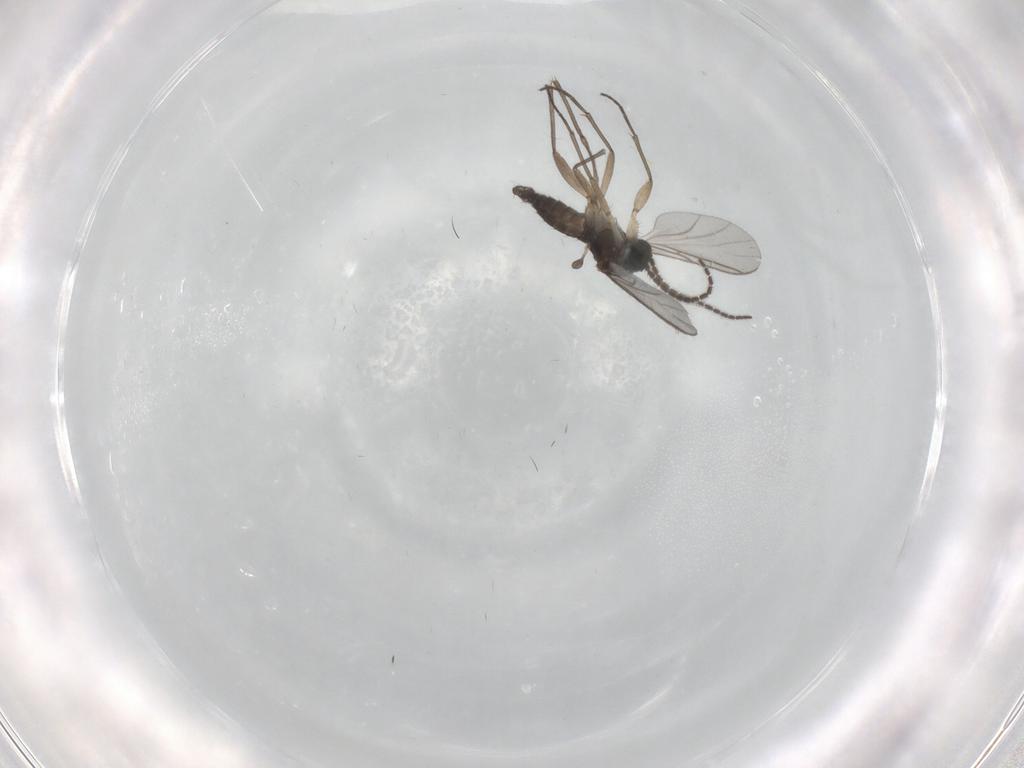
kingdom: Animalia
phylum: Arthropoda
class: Insecta
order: Diptera
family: Sciaridae
